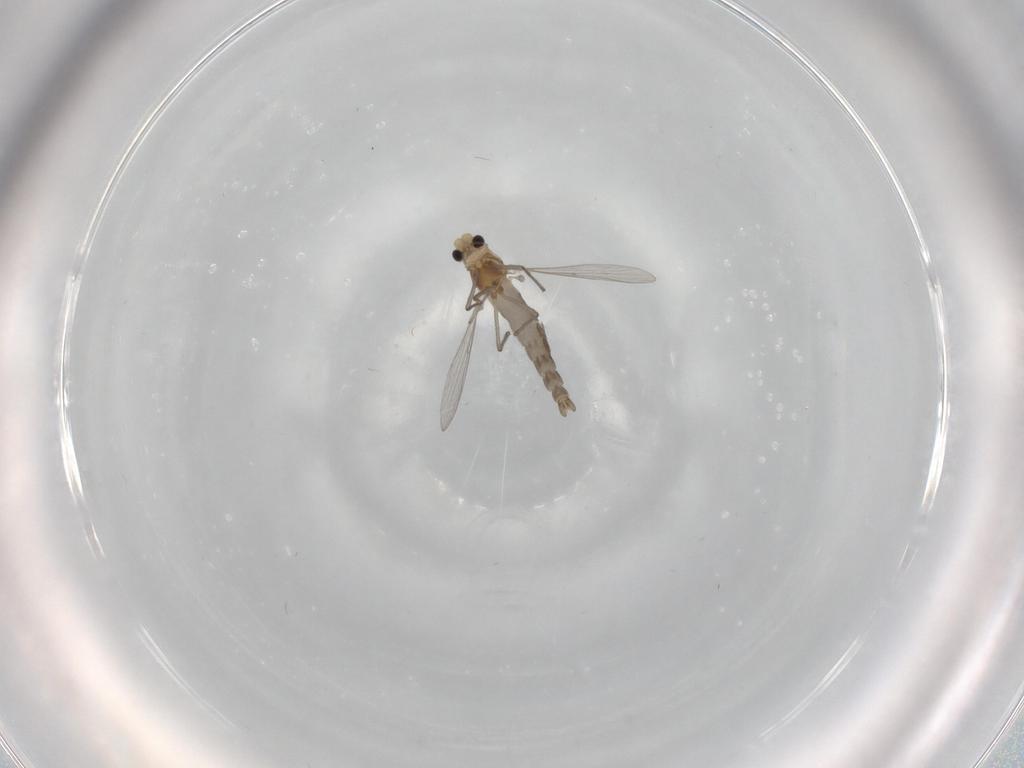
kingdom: Animalia
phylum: Arthropoda
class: Insecta
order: Diptera
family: Chironomidae
